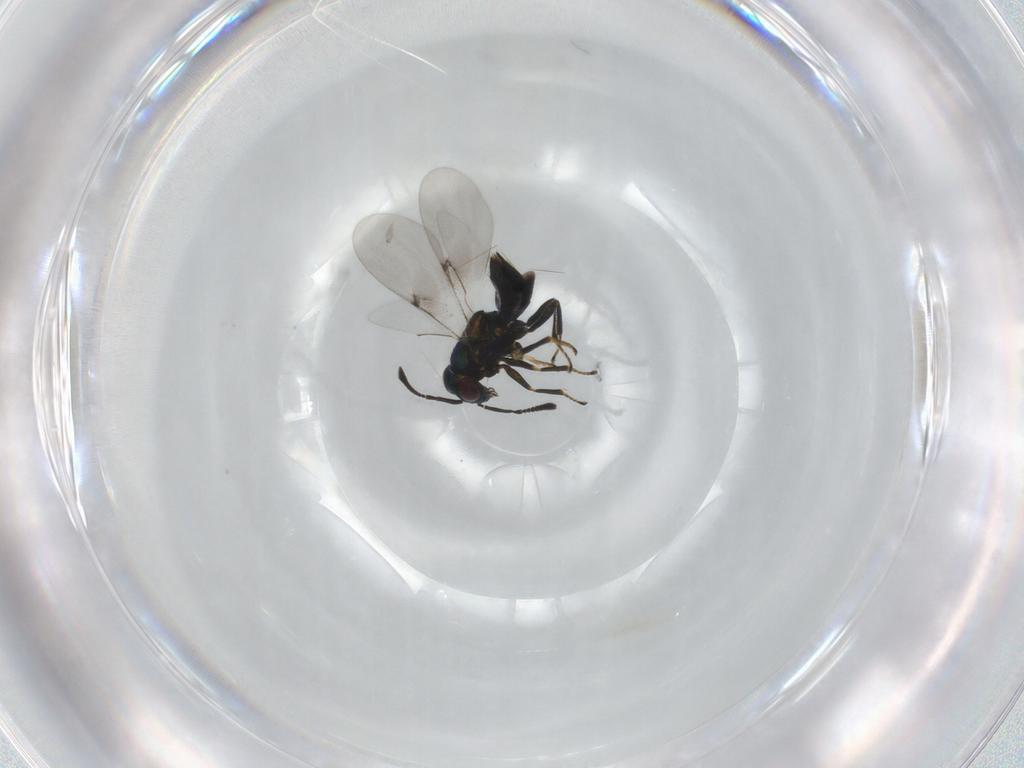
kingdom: Animalia
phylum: Arthropoda
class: Insecta
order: Hymenoptera
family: Encyrtidae
